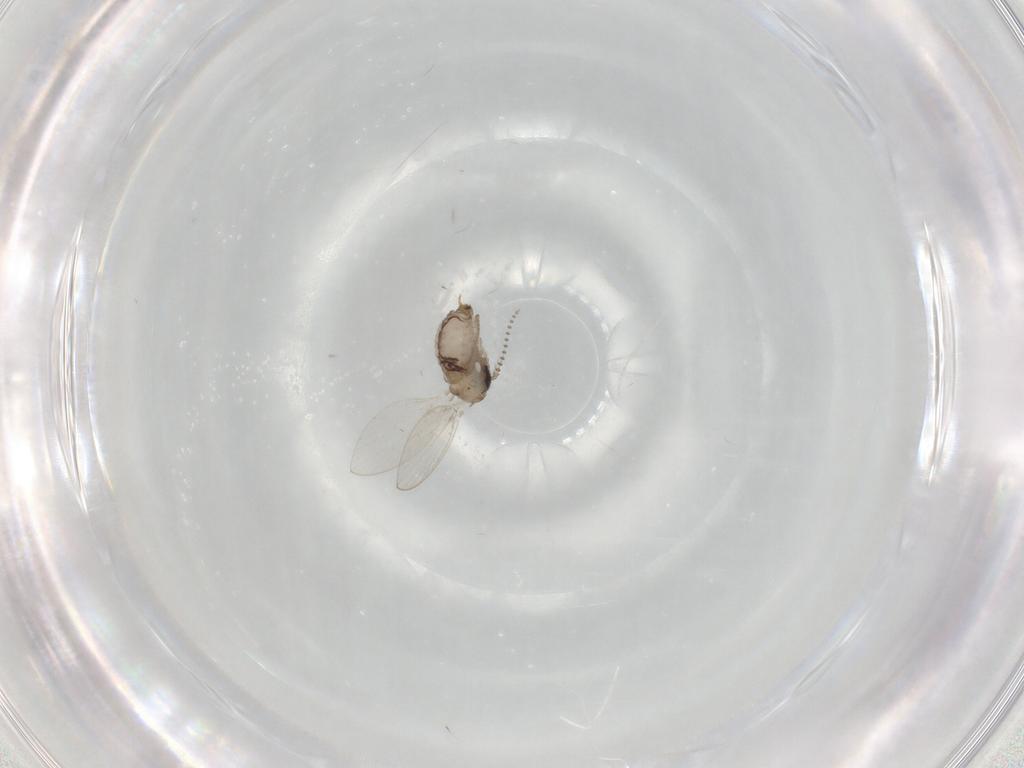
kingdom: Animalia
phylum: Arthropoda
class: Insecta
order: Diptera
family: Psychodidae
